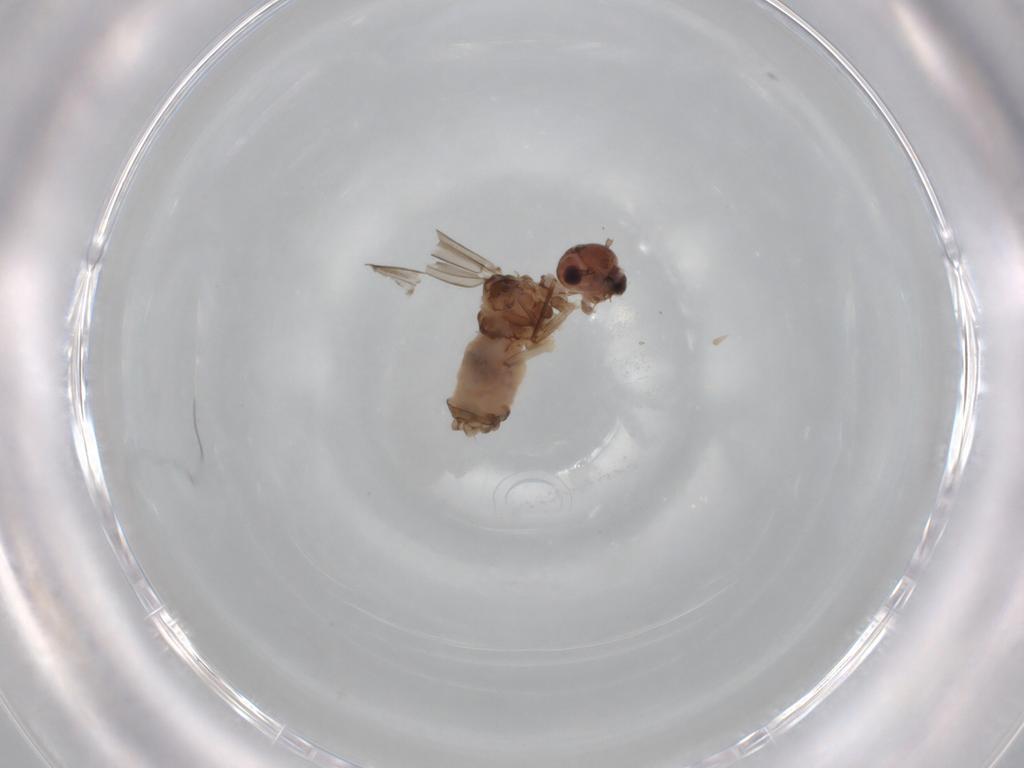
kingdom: Animalia
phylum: Arthropoda
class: Insecta
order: Psocodea
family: Peripsocidae
